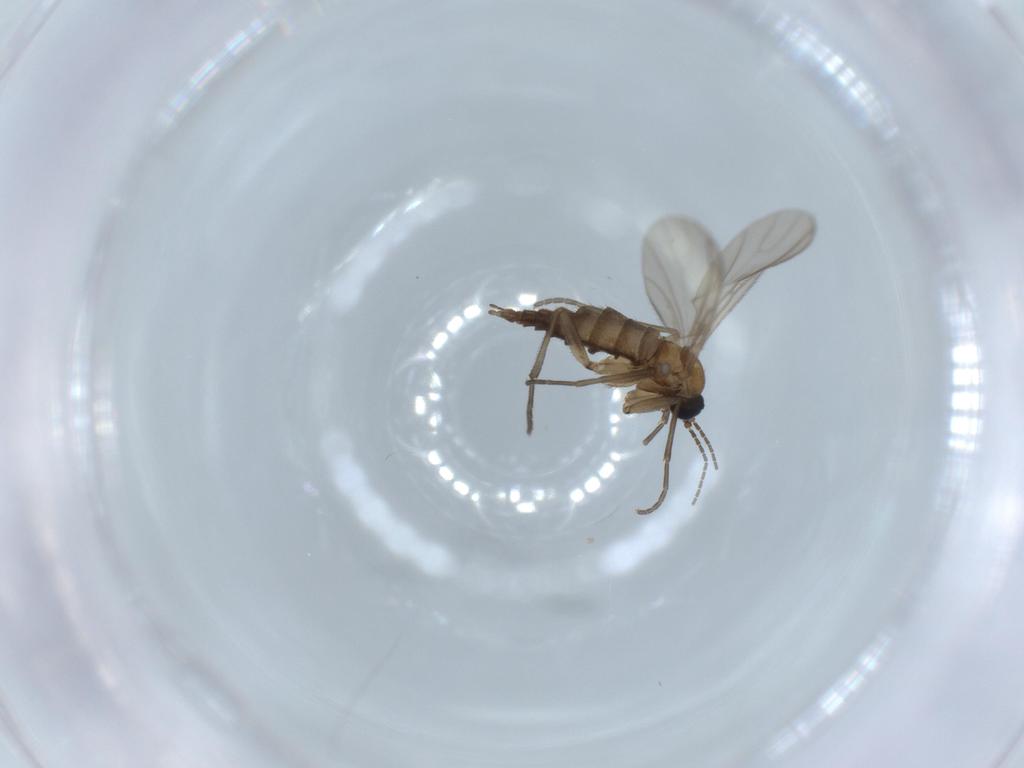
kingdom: Animalia
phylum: Arthropoda
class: Insecta
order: Diptera
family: Sciaridae
